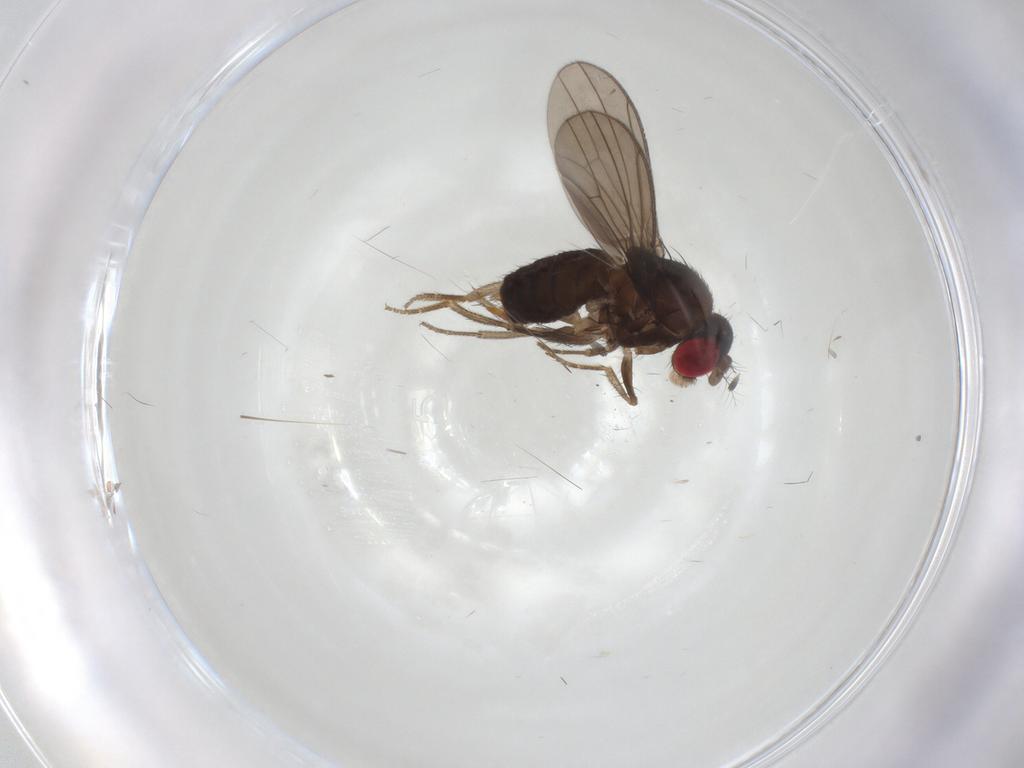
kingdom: Animalia
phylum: Arthropoda
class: Insecta
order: Diptera
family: Drosophilidae
